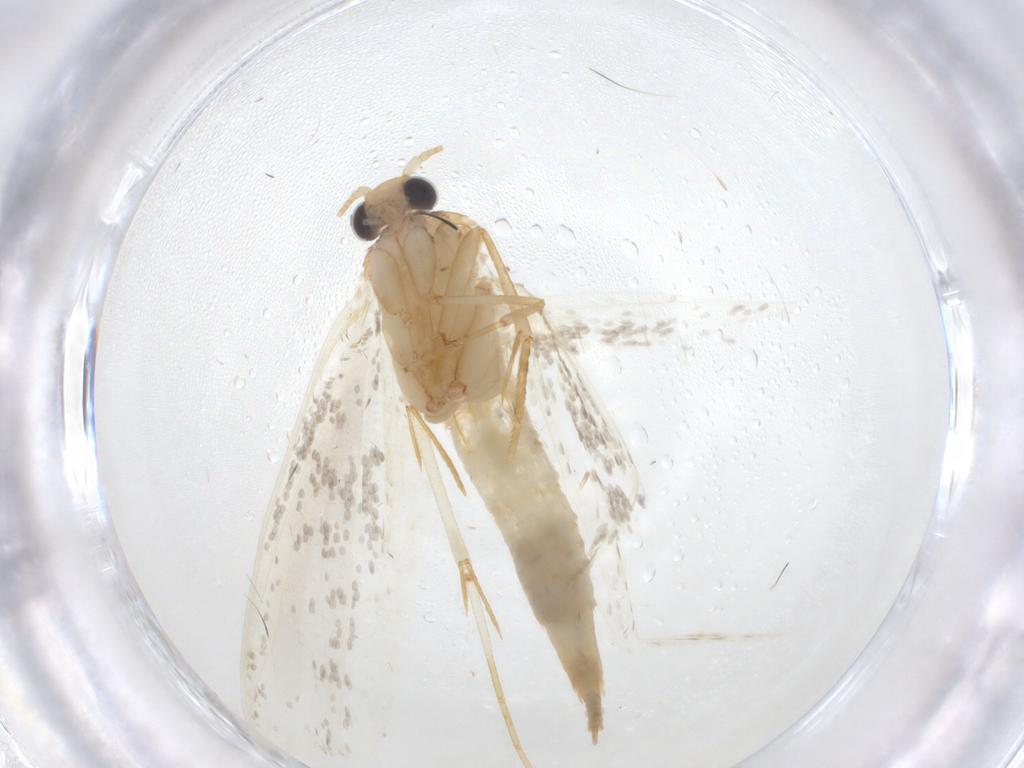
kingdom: Animalia
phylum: Arthropoda
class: Insecta
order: Lepidoptera
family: Tineidae
